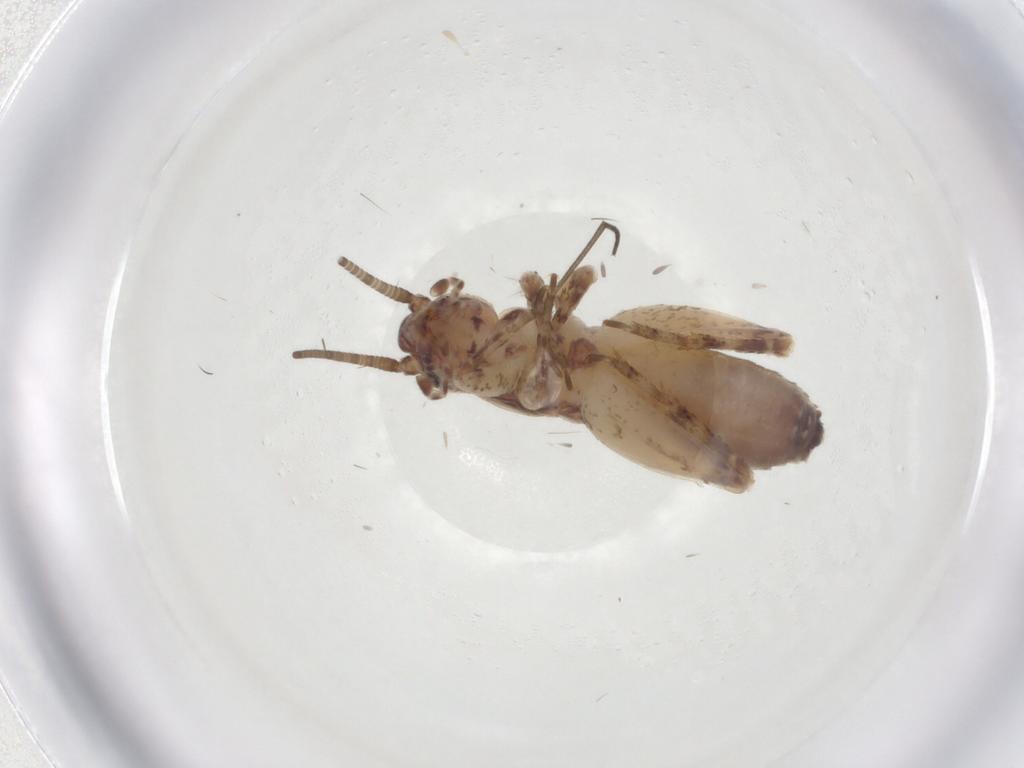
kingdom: Animalia
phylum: Arthropoda
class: Insecta
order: Orthoptera
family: Gryllidae
